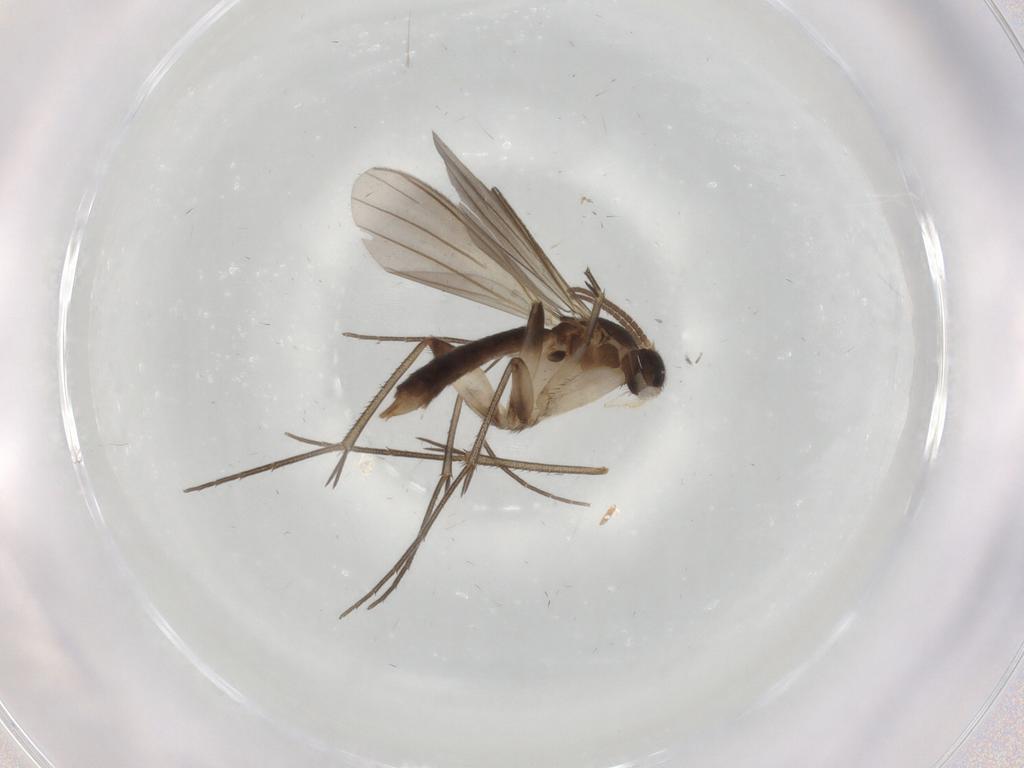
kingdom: Animalia
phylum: Arthropoda
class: Insecta
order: Diptera
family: Mycetophilidae
